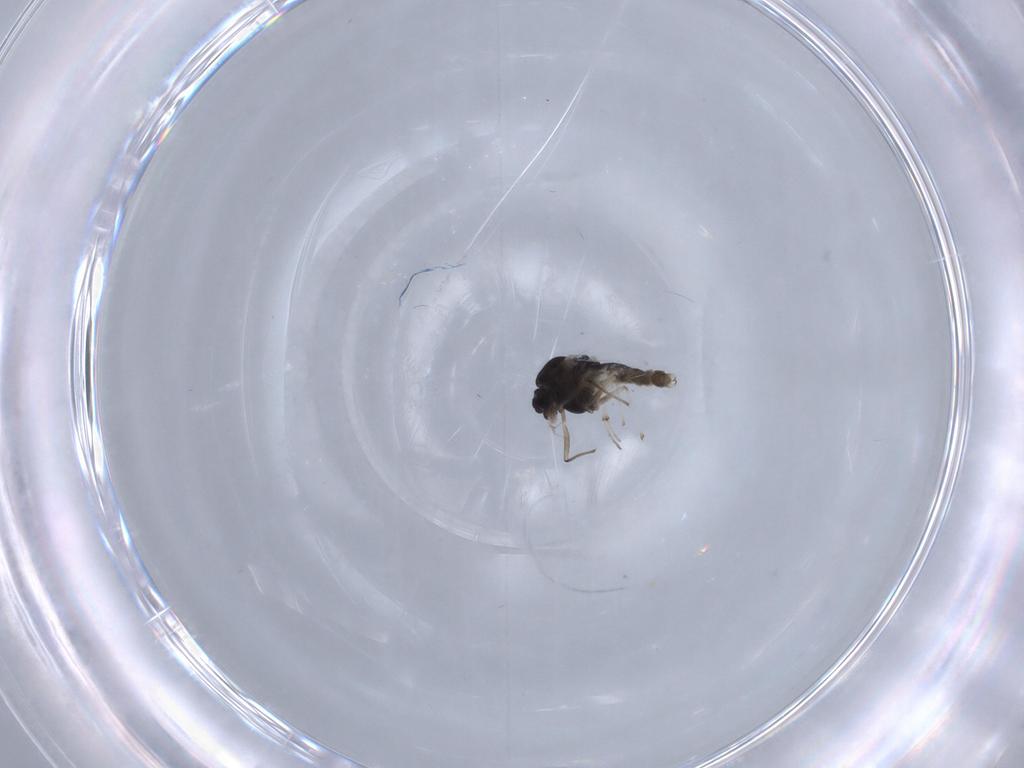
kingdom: Animalia
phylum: Arthropoda
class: Insecta
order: Diptera
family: Chironomidae
